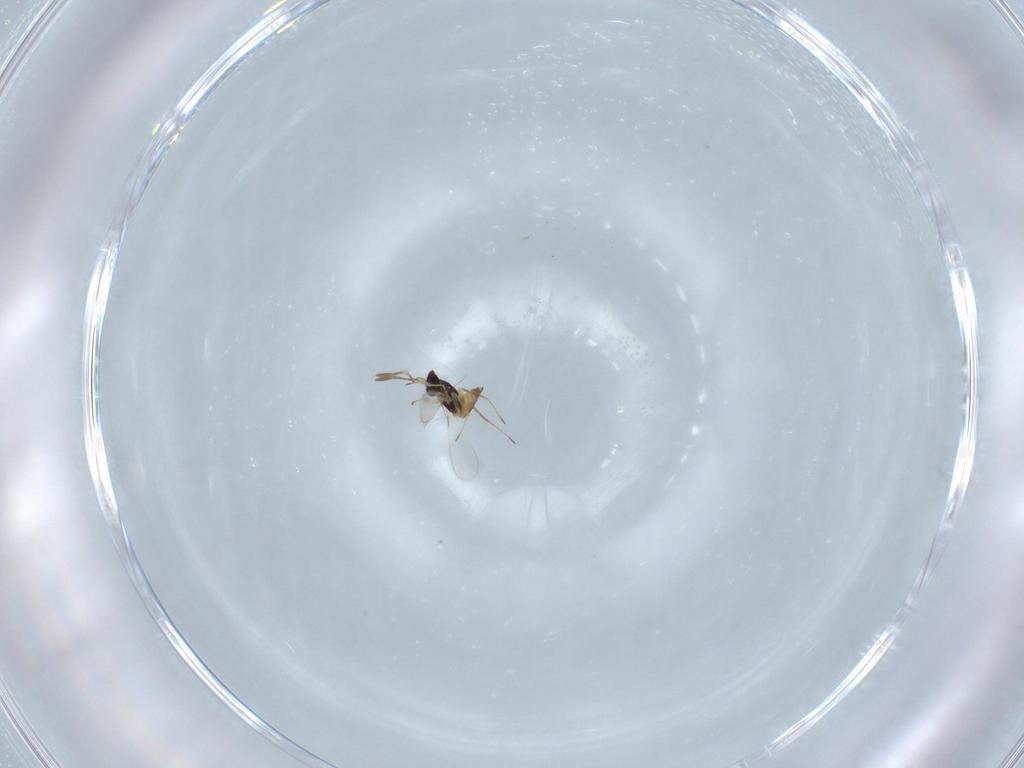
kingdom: Animalia
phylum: Arthropoda
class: Insecta
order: Hymenoptera
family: Mymaridae
